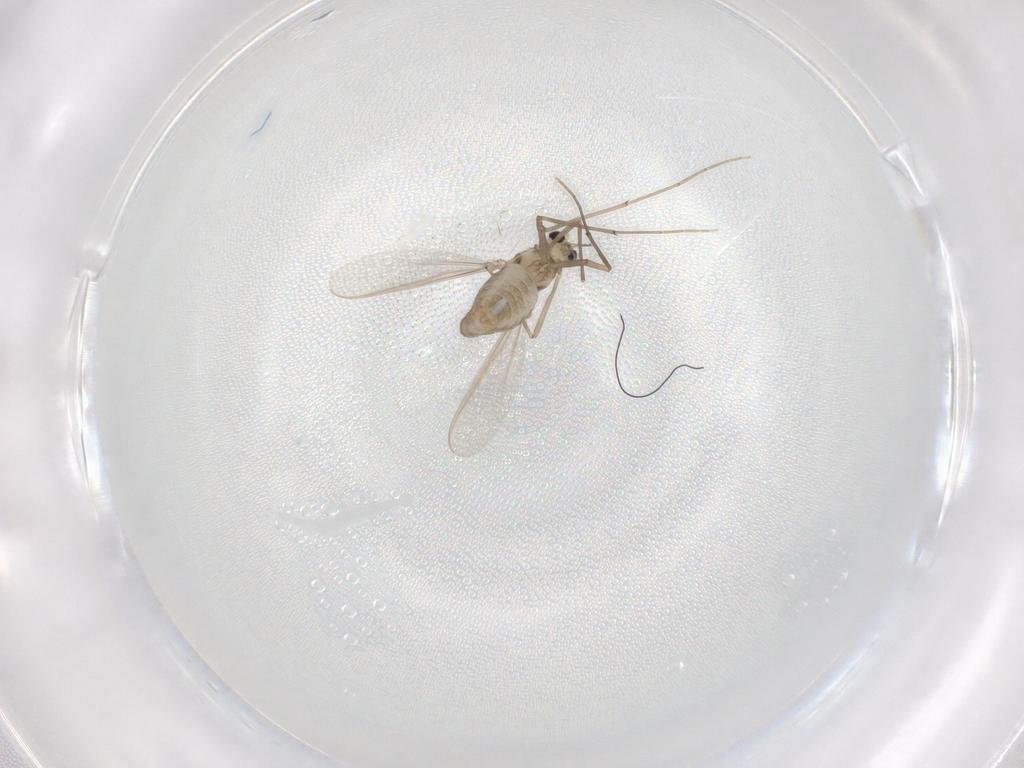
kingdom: Animalia
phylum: Arthropoda
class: Insecta
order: Diptera
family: Chironomidae
